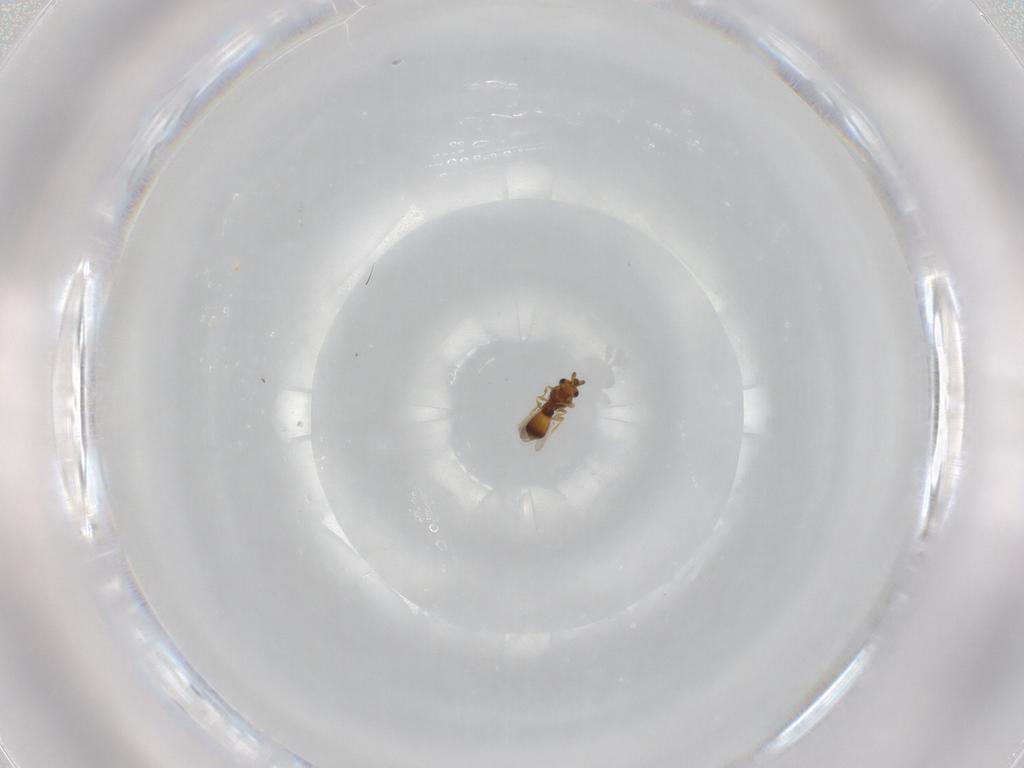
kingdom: Animalia
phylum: Arthropoda
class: Insecta
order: Hymenoptera
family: Platygastridae
